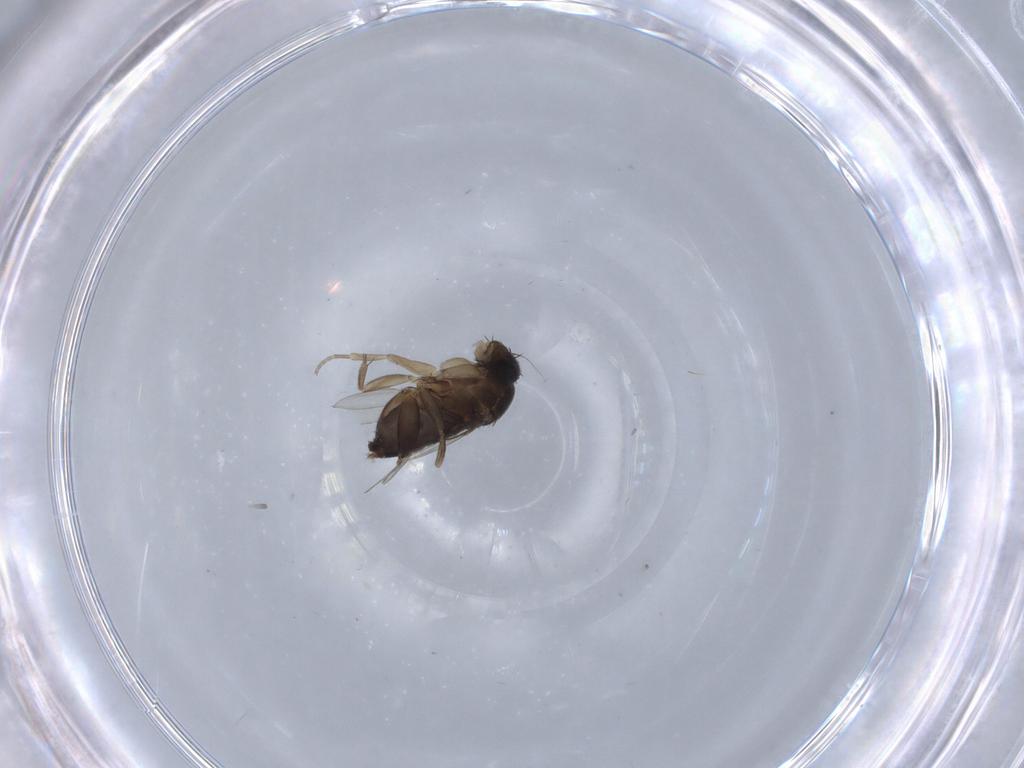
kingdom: Animalia
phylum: Arthropoda
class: Insecta
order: Diptera
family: Phoridae
